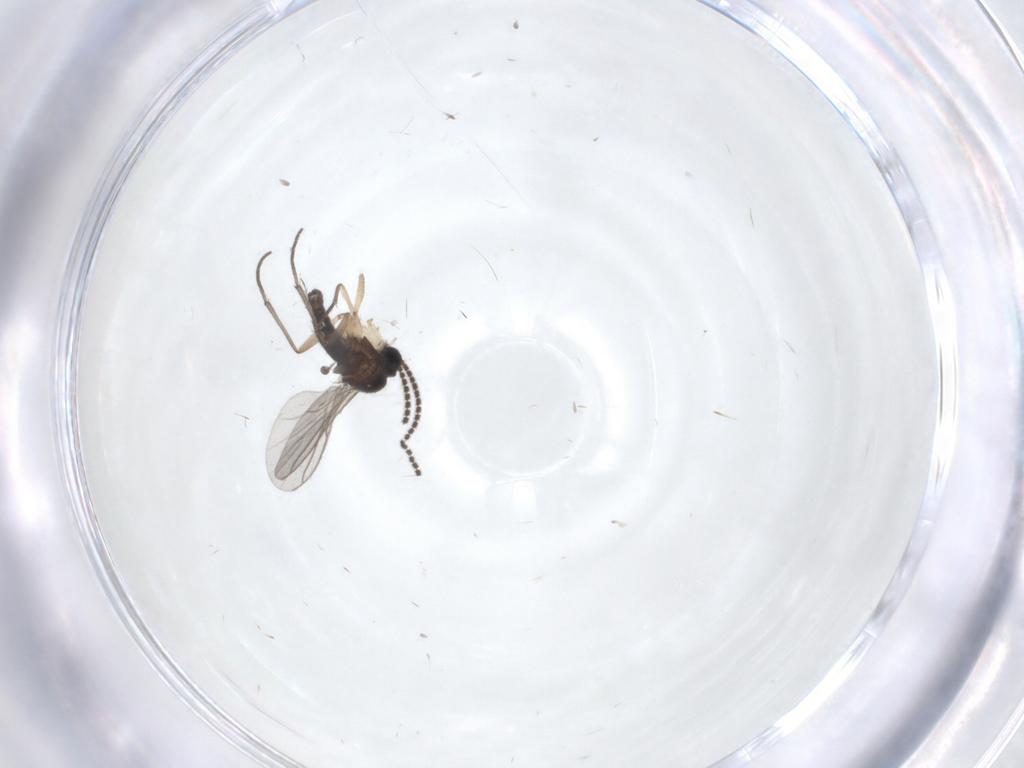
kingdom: Animalia
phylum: Arthropoda
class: Insecta
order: Diptera
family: Sciaridae
